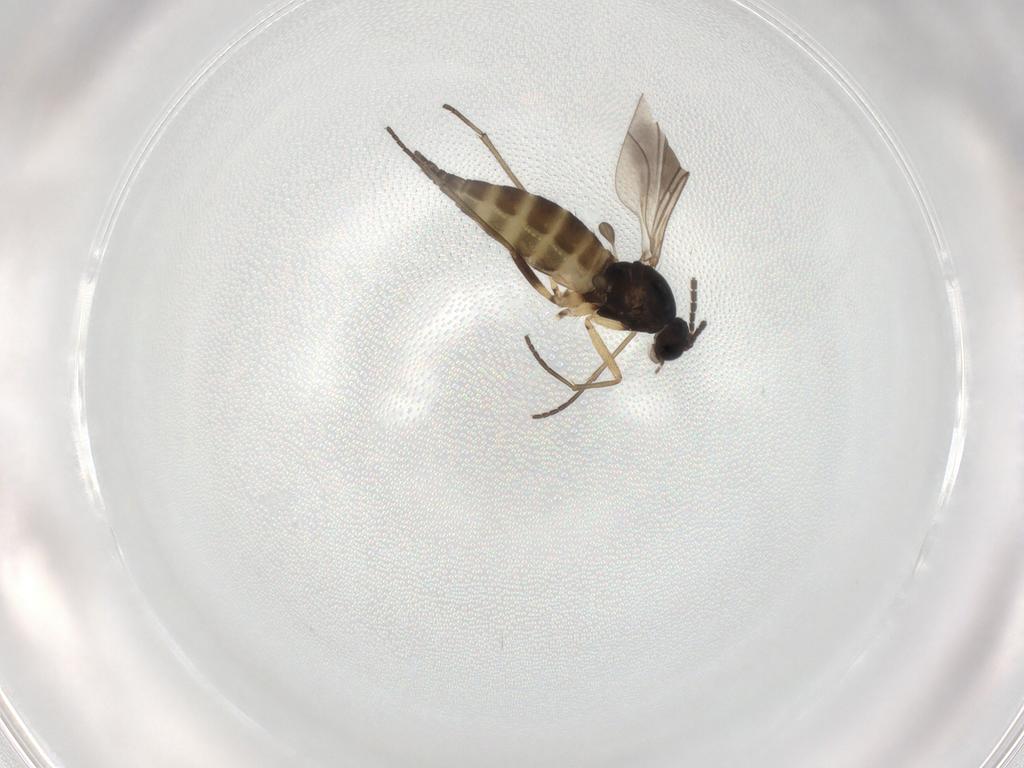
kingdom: Animalia
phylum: Arthropoda
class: Insecta
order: Diptera
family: Sciaridae
